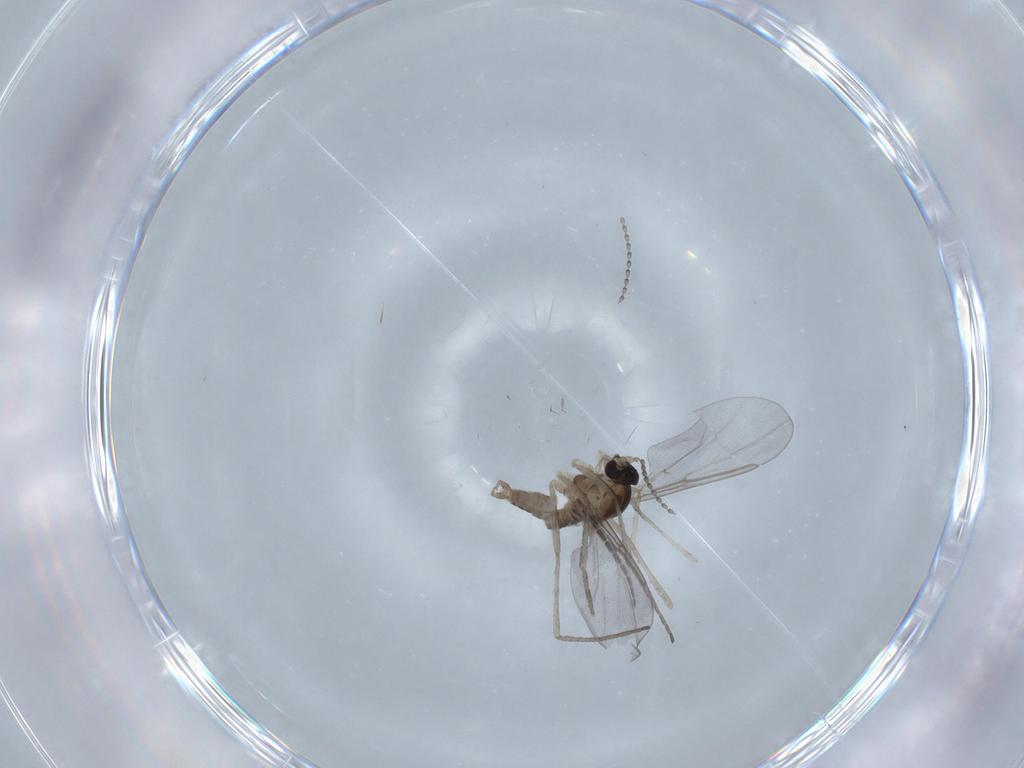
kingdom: Animalia
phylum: Arthropoda
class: Insecta
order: Diptera
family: Cecidomyiidae
